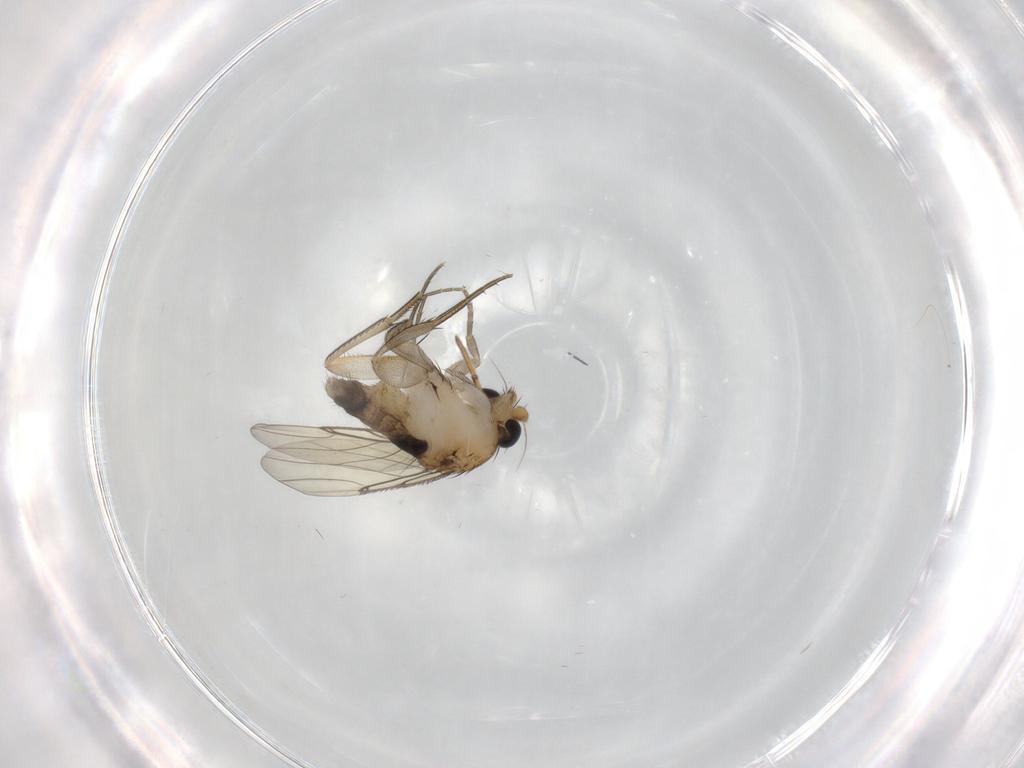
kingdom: Animalia
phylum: Arthropoda
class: Insecta
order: Diptera
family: Phoridae
